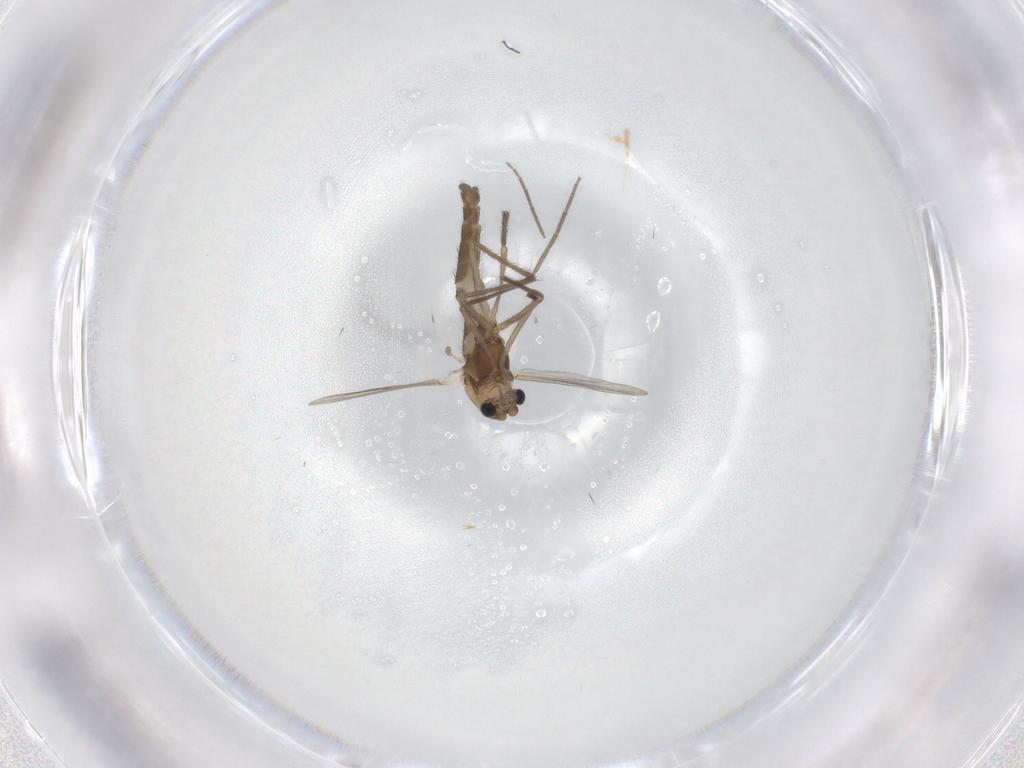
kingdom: Animalia
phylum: Arthropoda
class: Insecta
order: Diptera
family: Chironomidae
